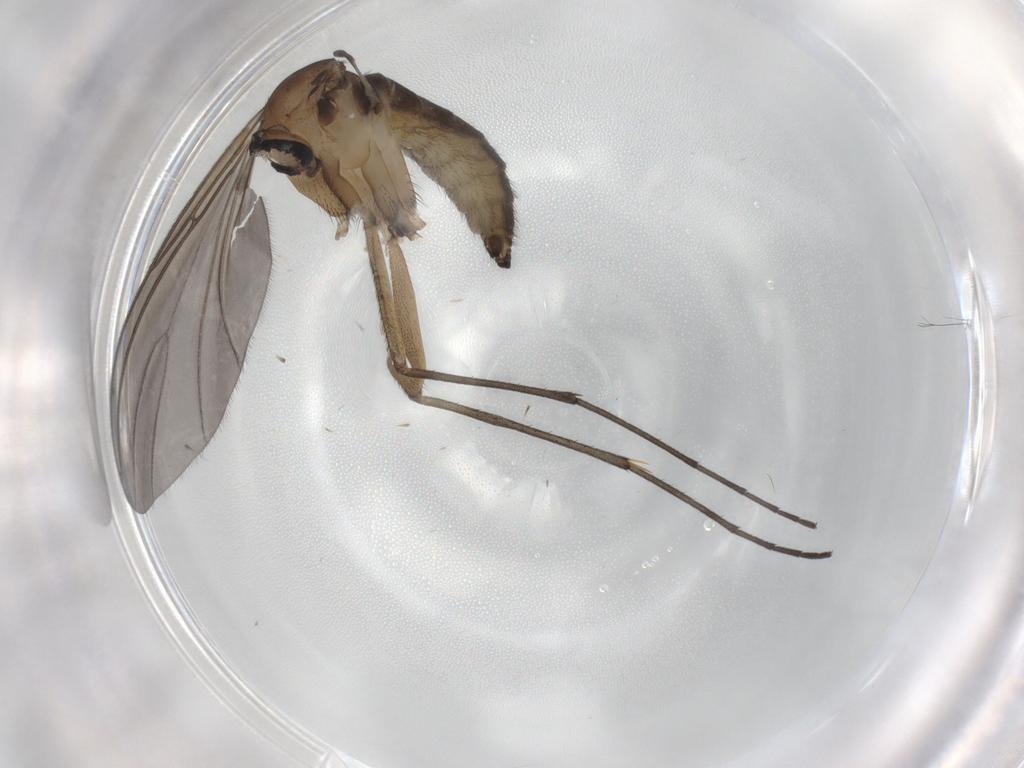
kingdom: Animalia
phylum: Arthropoda
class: Insecta
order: Diptera
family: Sciaridae
